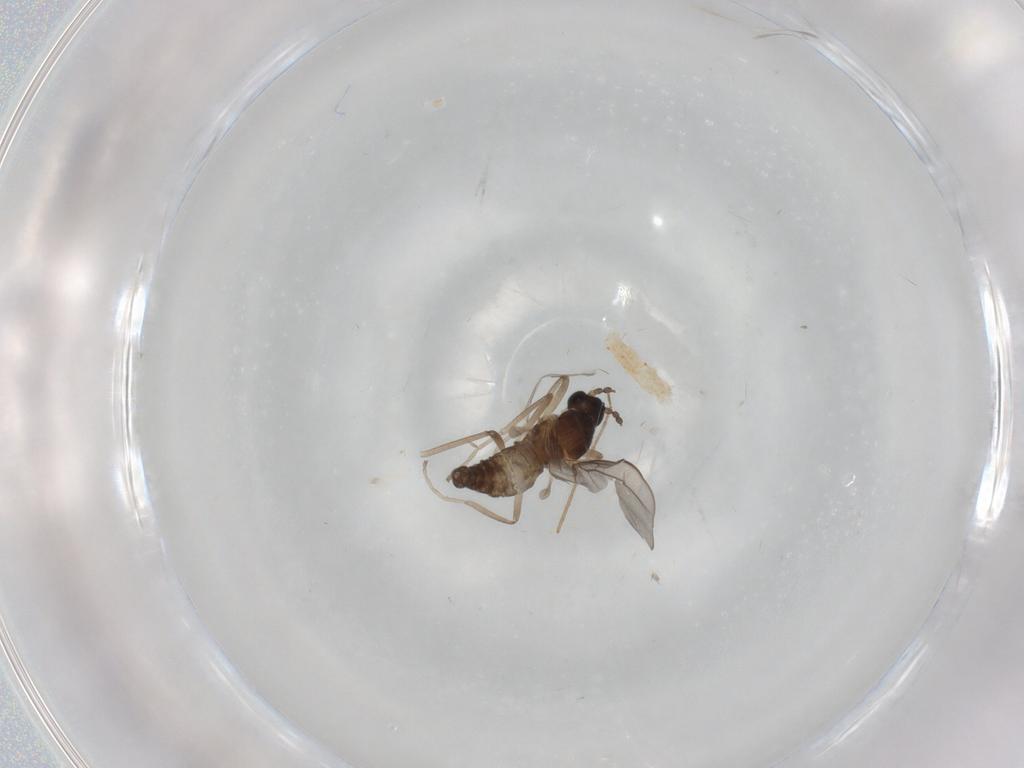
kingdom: Animalia
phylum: Arthropoda
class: Insecta
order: Diptera
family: Chironomidae
